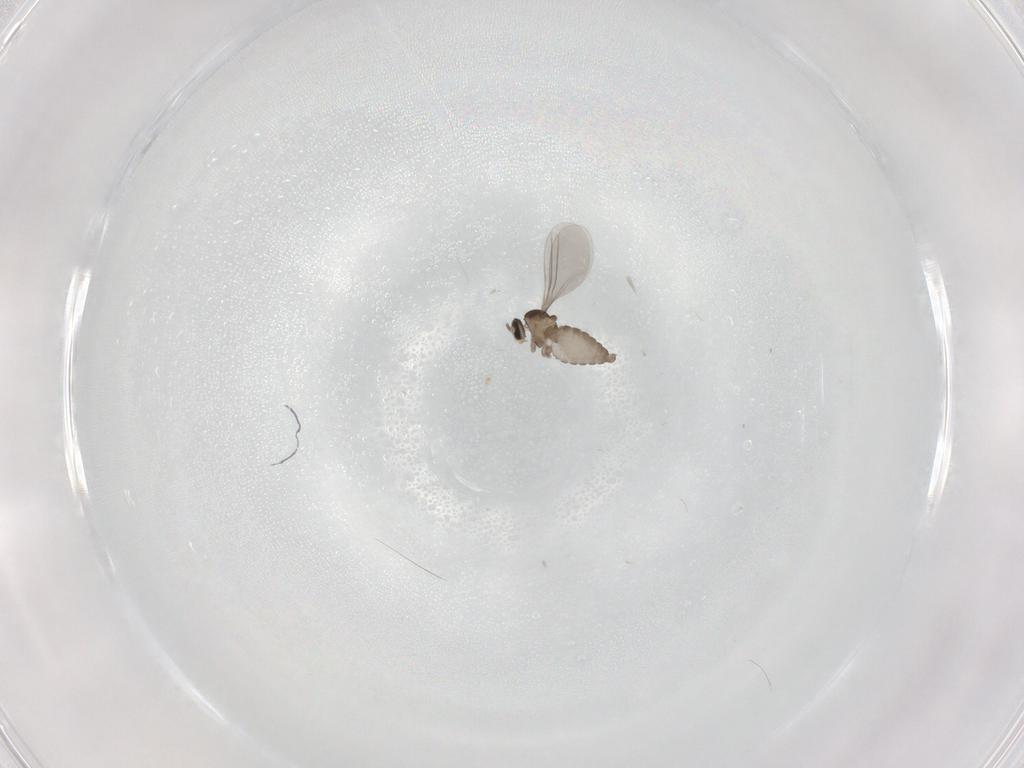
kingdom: Animalia
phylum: Arthropoda
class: Insecta
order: Diptera
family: Cecidomyiidae
